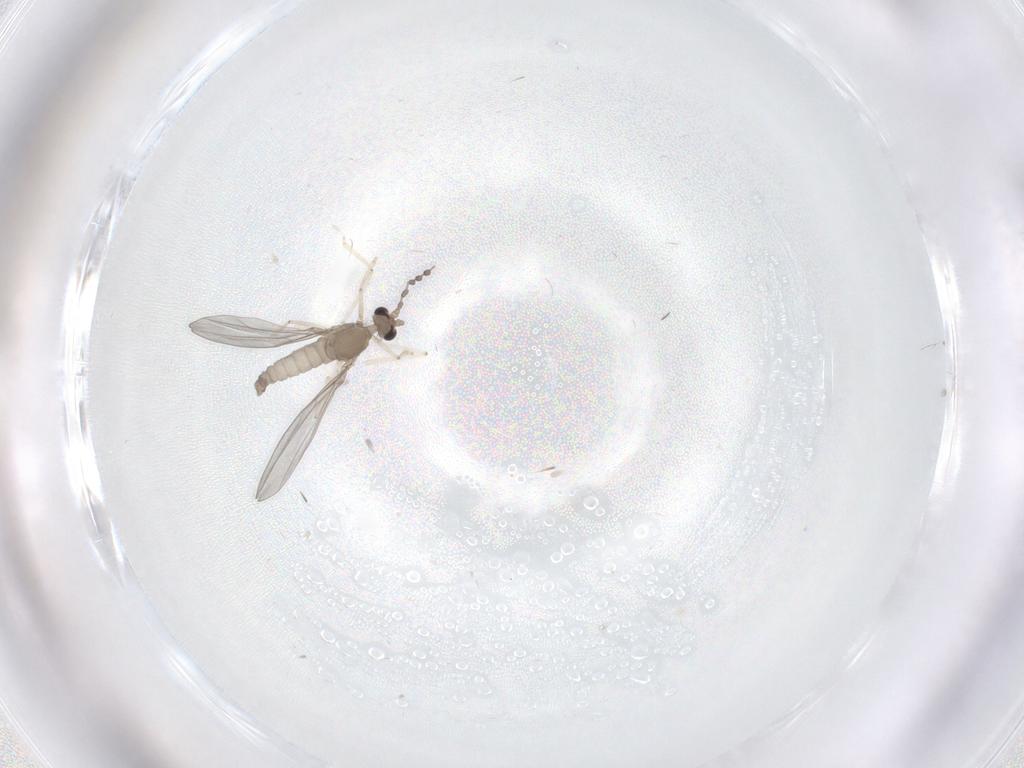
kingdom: Animalia
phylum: Arthropoda
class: Insecta
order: Diptera
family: Cecidomyiidae
